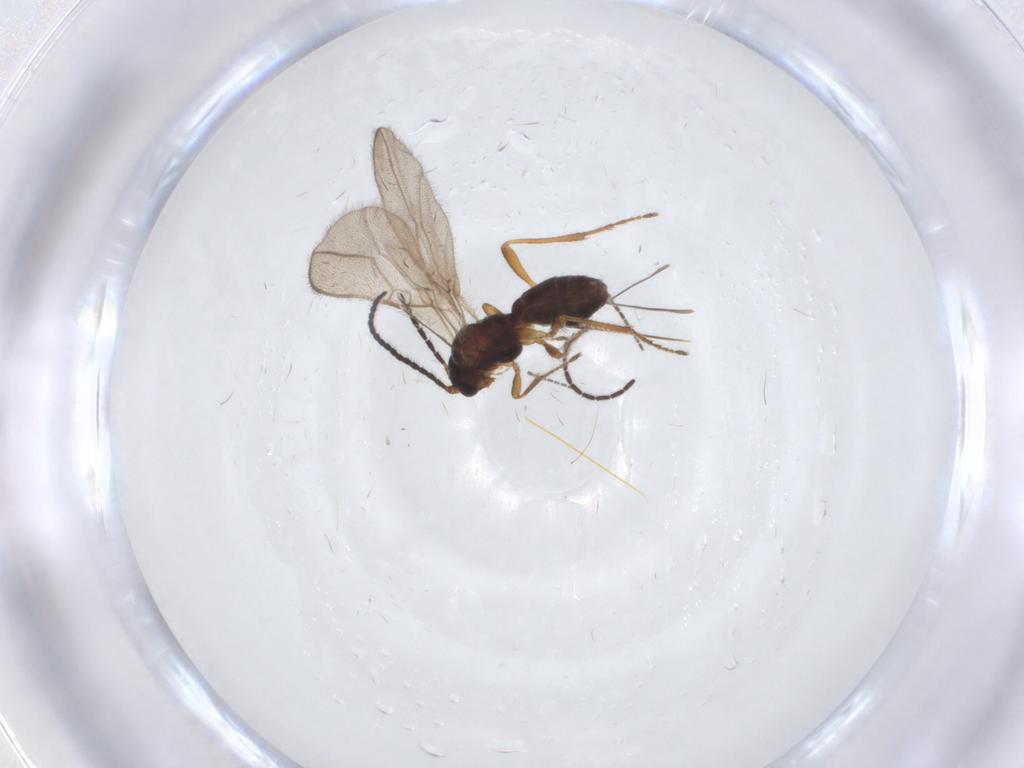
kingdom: Animalia
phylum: Arthropoda
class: Insecta
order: Hymenoptera
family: Braconidae
